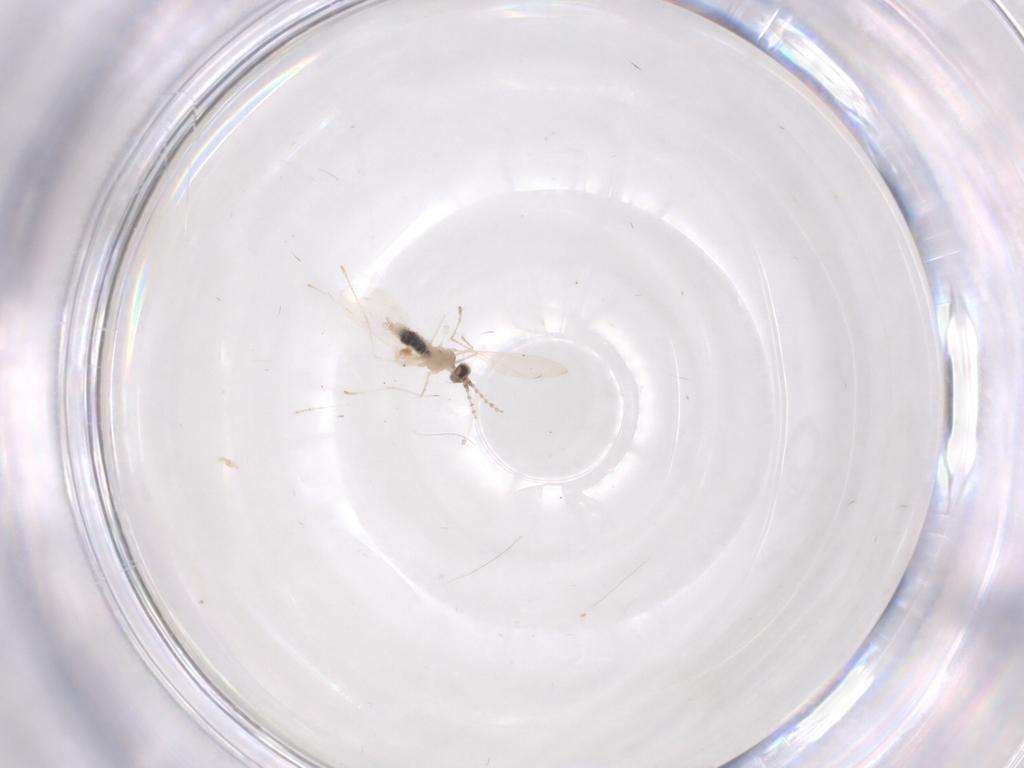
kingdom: Animalia
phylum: Arthropoda
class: Insecta
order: Diptera
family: Cecidomyiidae
